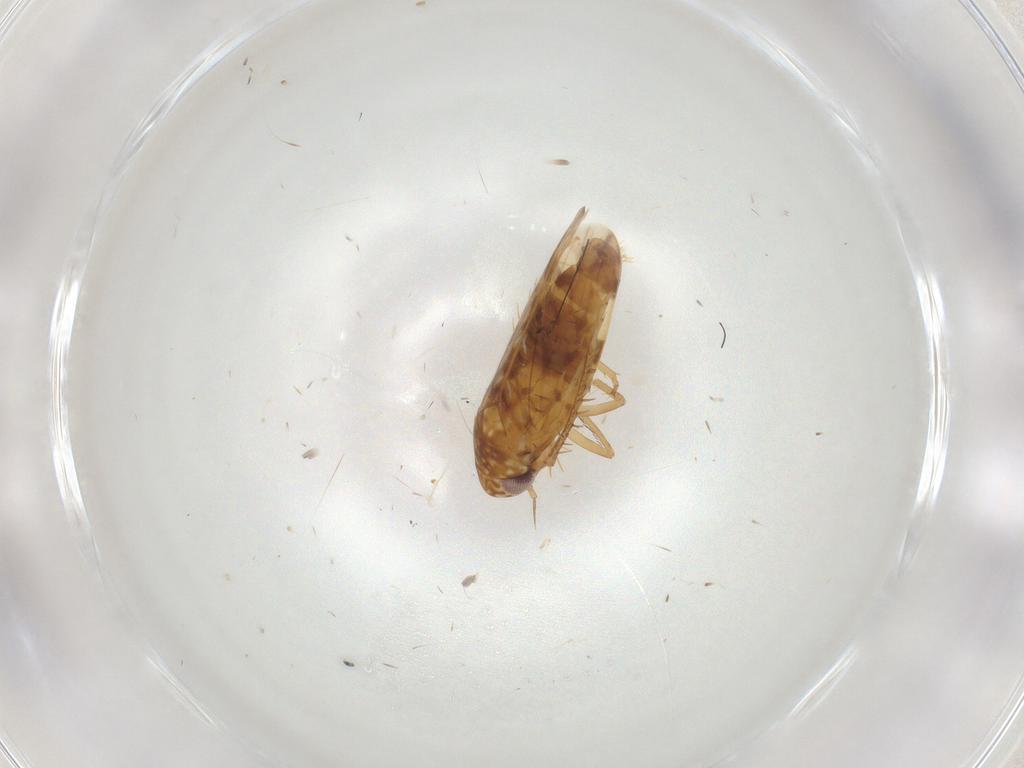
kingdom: Animalia
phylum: Arthropoda
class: Insecta
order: Hemiptera
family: Cicadellidae
